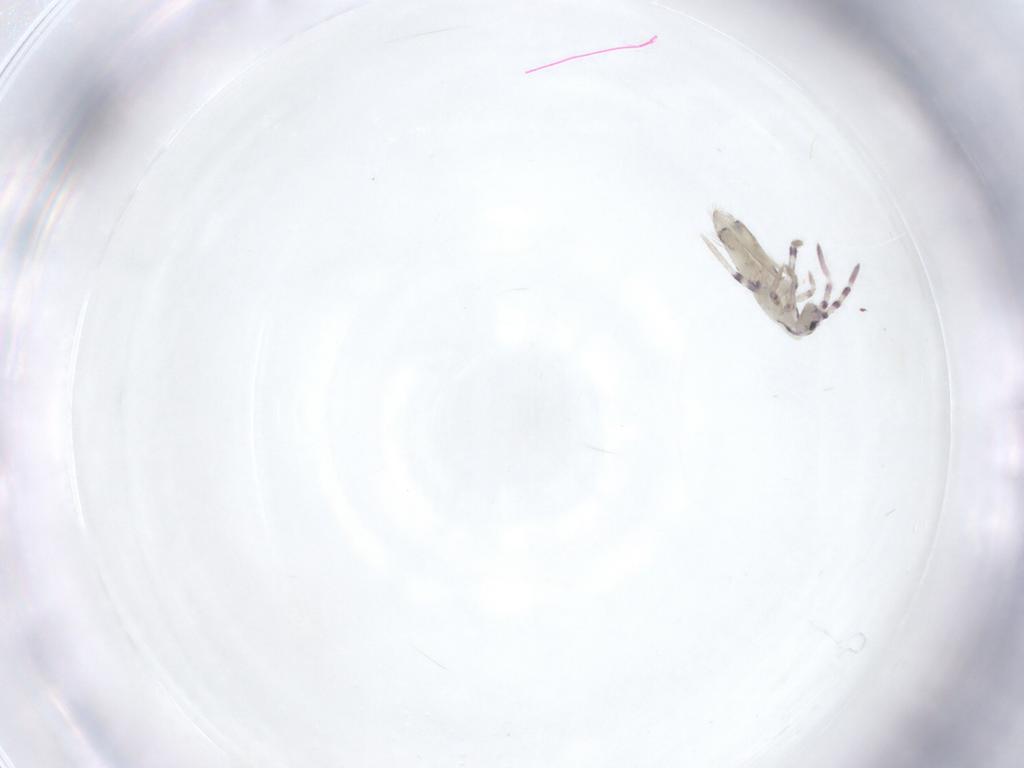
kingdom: Animalia
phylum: Arthropoda
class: Collembola
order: Entomobryomorpha
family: Entomobryidae
